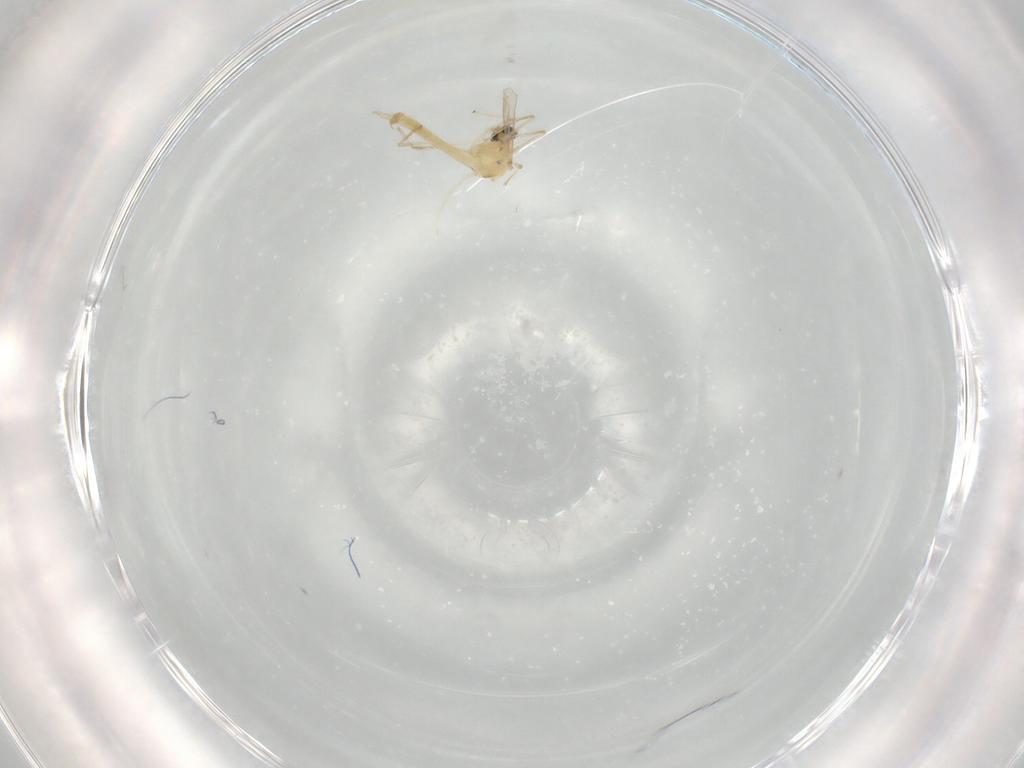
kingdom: Animalia
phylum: Arthropoda
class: Insecta
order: Diptera
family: Chironomidae
